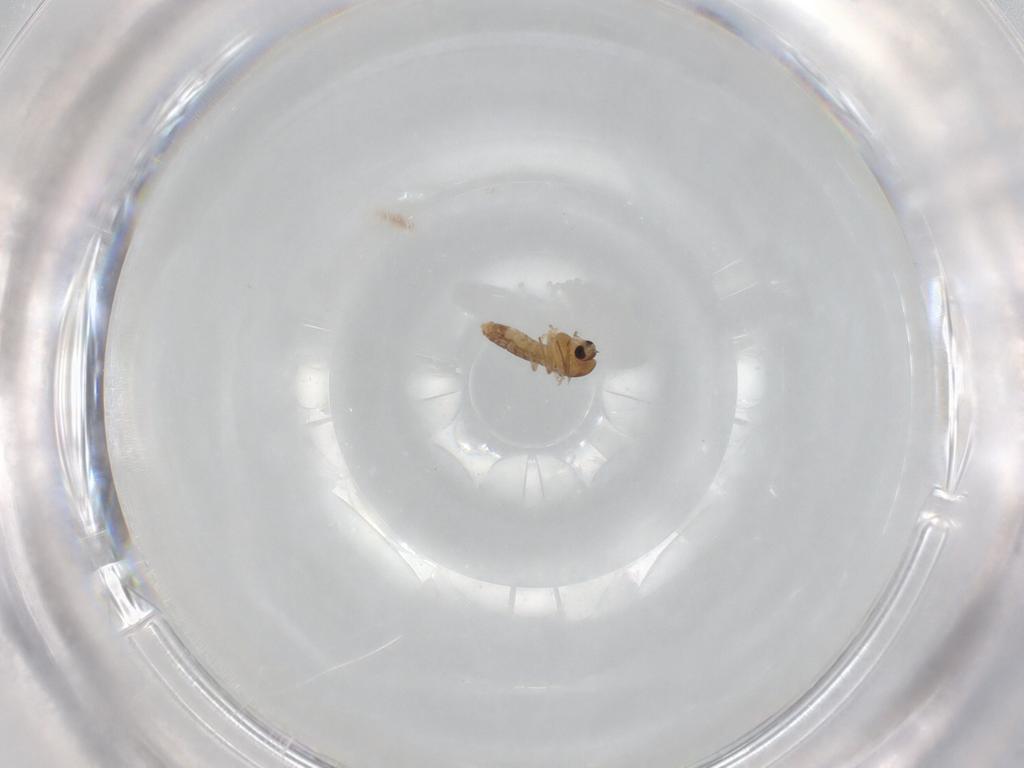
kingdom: Animalia
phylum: Arthropoda
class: Insecta
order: Diptera
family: Chironomidae
